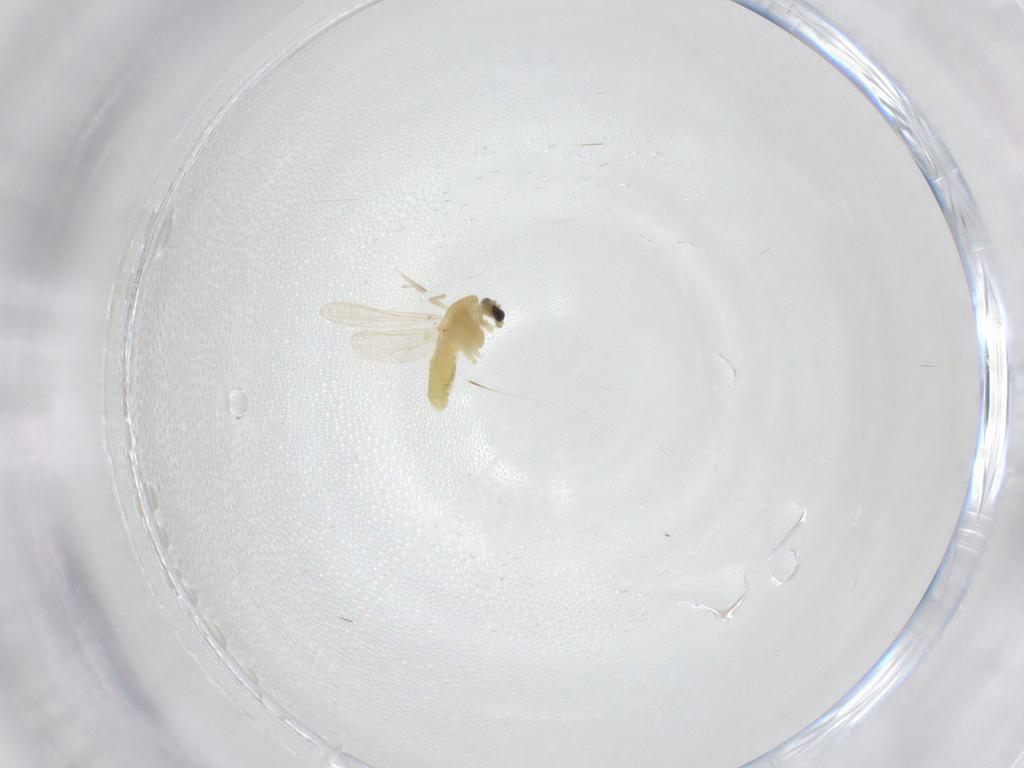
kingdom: Animalia
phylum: Arthropoda
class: Insecta
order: Diptera
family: Chironomidae
